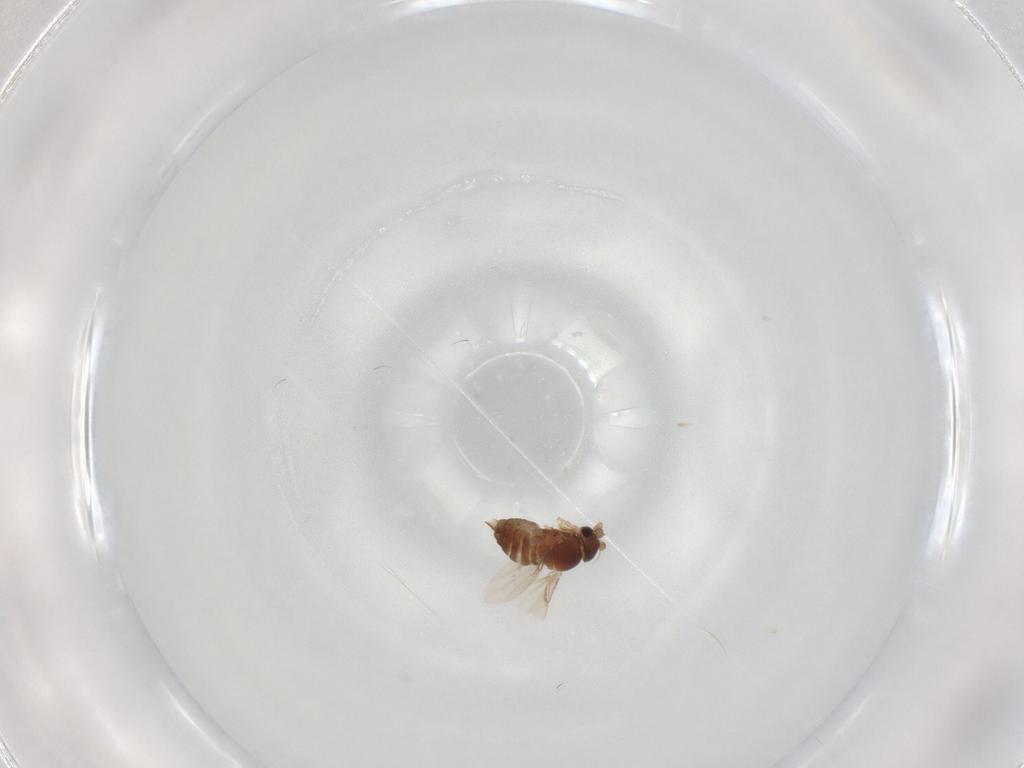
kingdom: Animalia
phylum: Arthropoda
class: Insecta
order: Diptera
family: Phoridae
